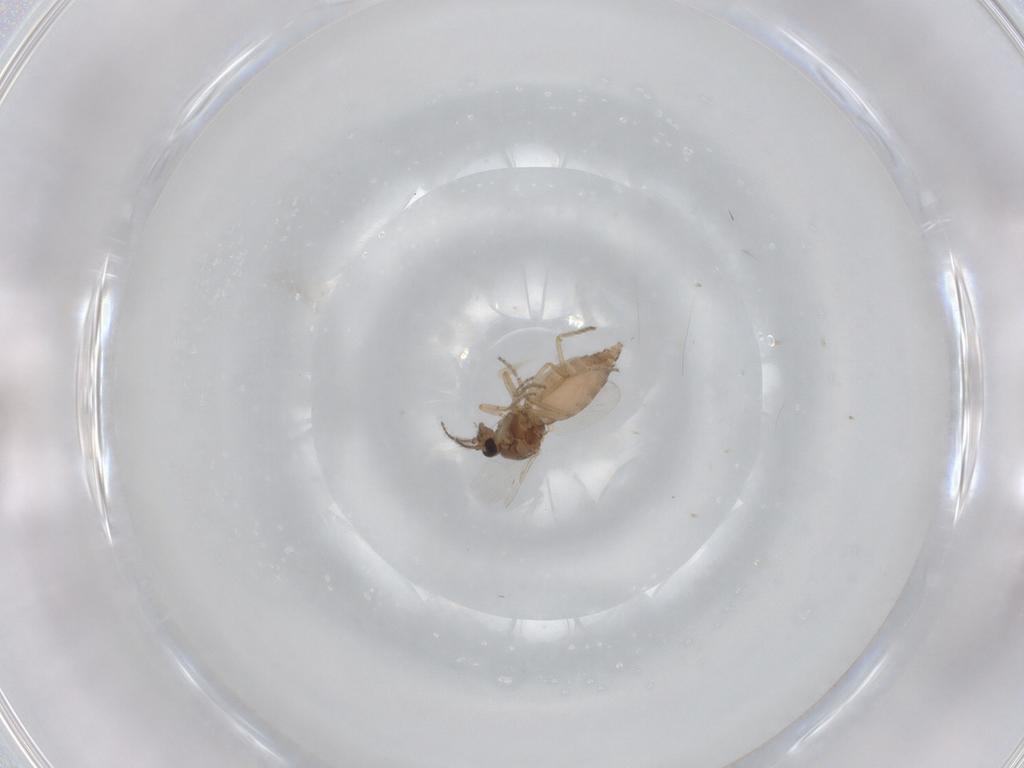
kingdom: Animalia
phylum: Arthropoda
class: Insecta
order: Diptera
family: Ceratopogonidae
